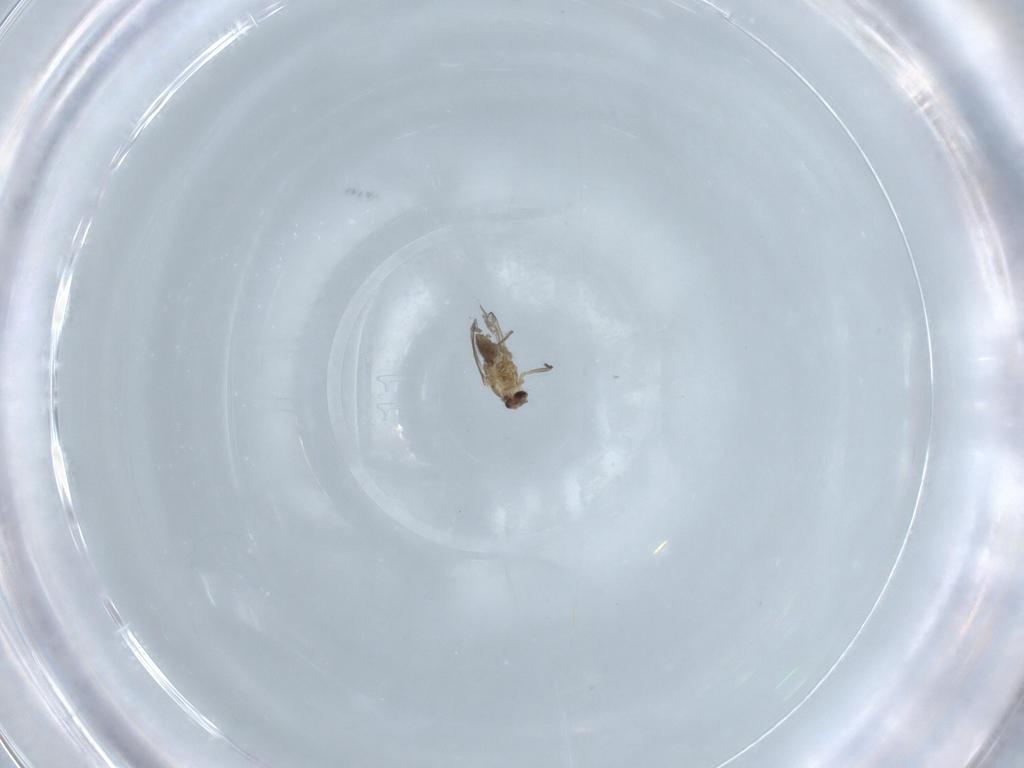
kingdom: Animalia
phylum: Arthropoda
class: Insecta
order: Diptera
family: Chironomidae
